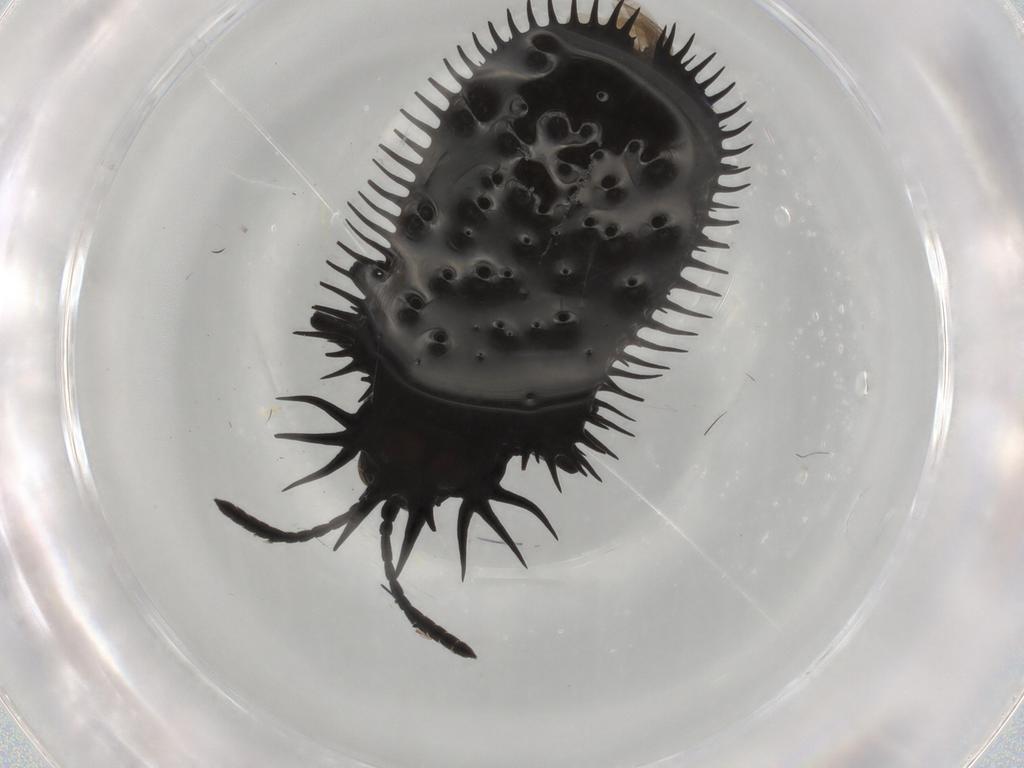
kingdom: Animalia
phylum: Arthropoda
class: Insecta
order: Coleoptera
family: Chrysomelidae
